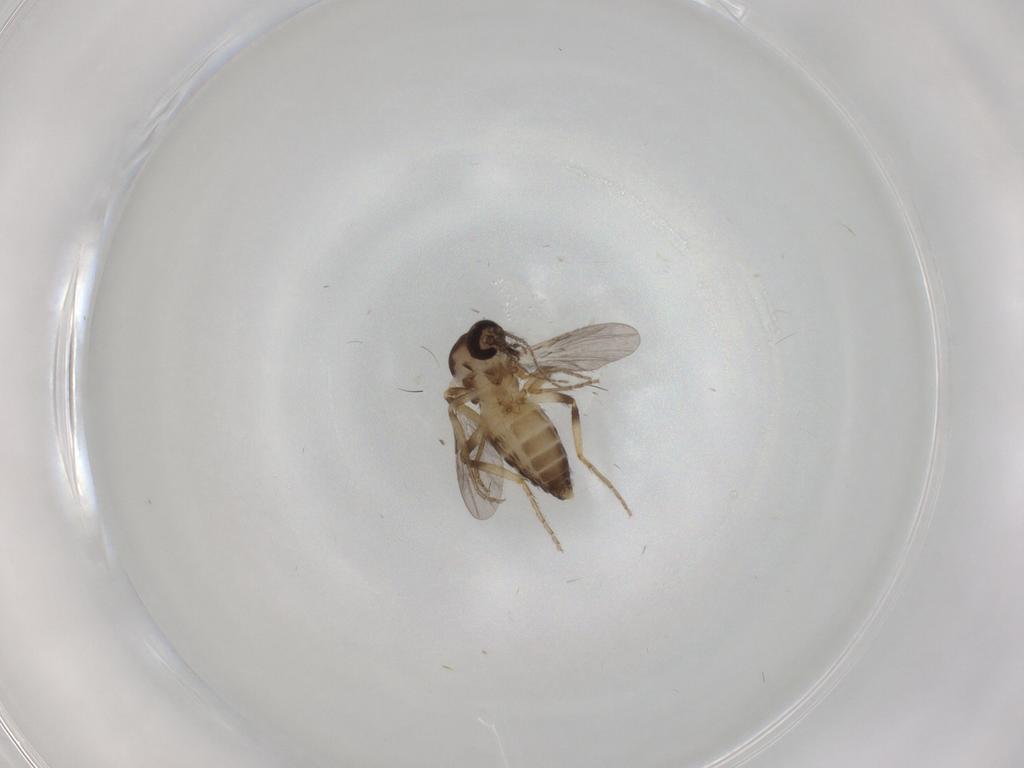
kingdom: Animalia
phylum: Arthropoda
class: Insecta
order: Diptera
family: Ceratopogonidae
